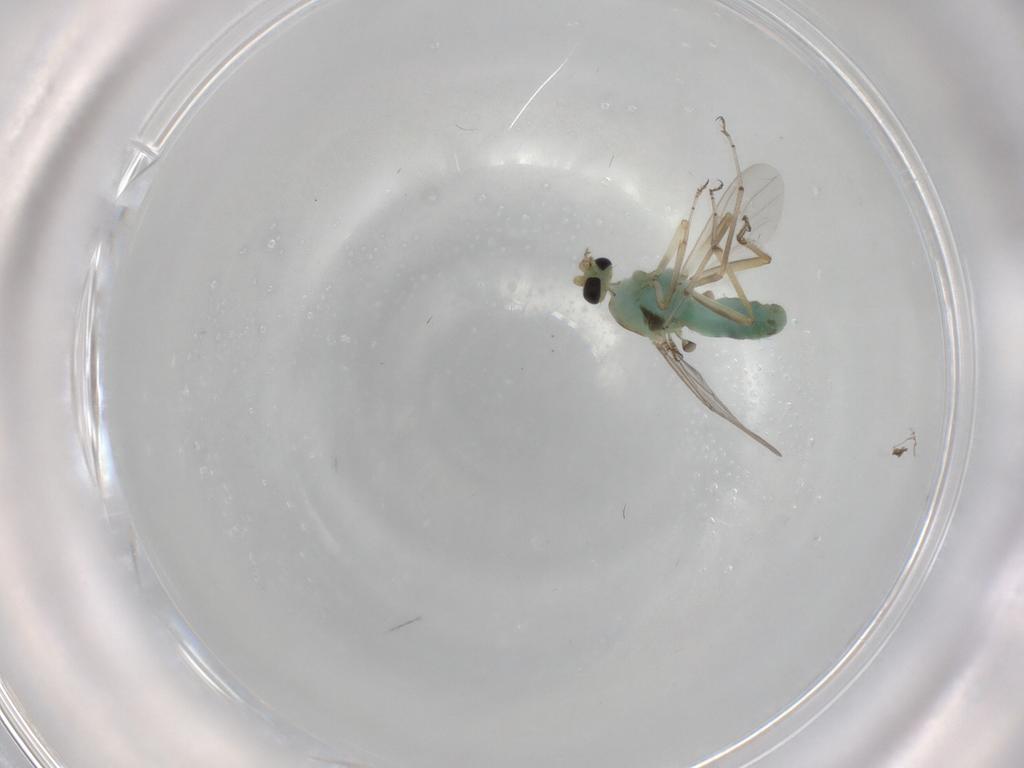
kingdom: Animalia
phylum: Arthropoda
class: Insecta
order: Diptera
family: Ceratopogonidae
